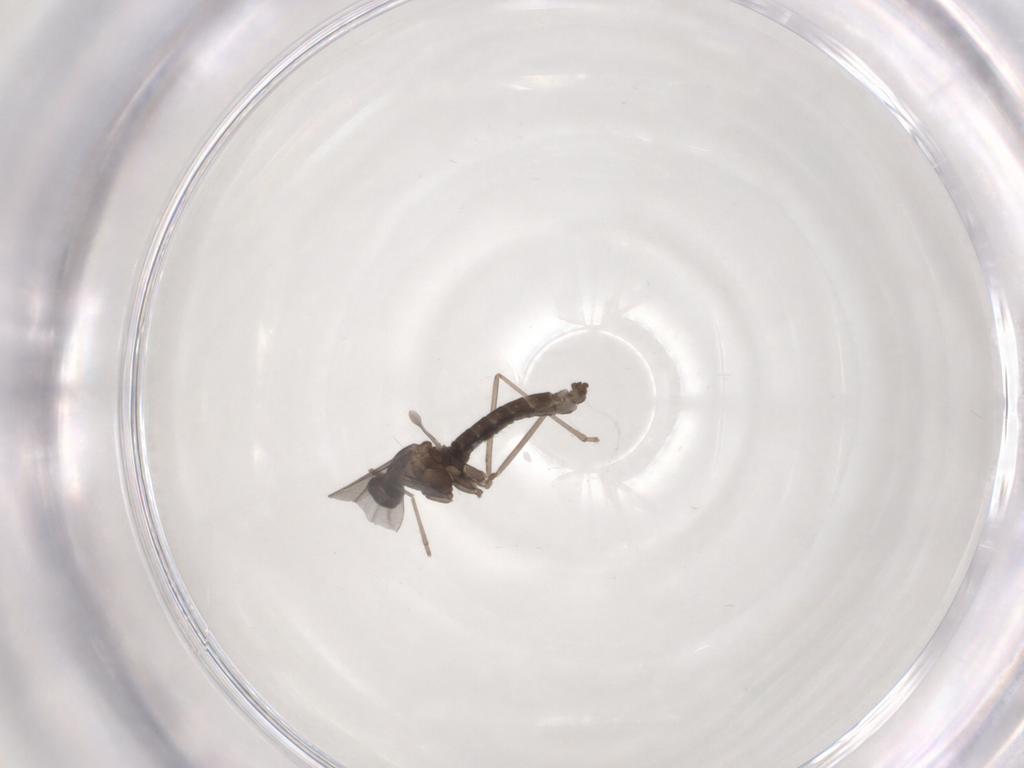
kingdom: Animalia
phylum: Arthropoda
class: Insecta
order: Diptera
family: Cecidomyiidae
